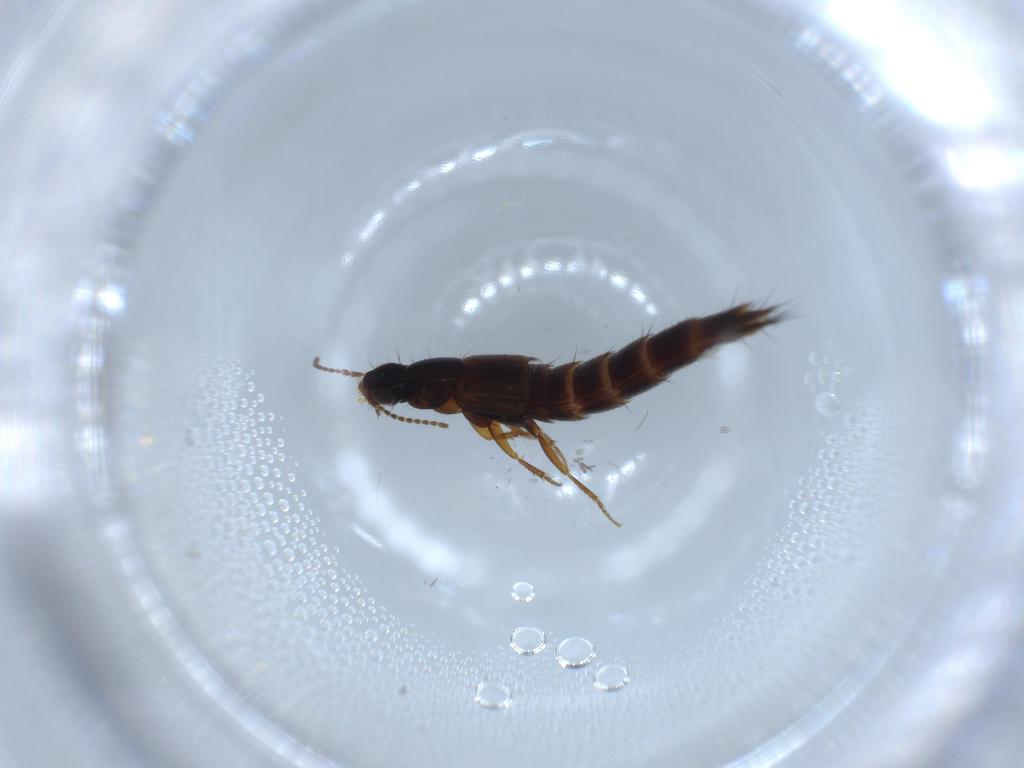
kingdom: Animalia
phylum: Arthropoda
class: Insecta
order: Coleoptera
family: Staphylinidae
